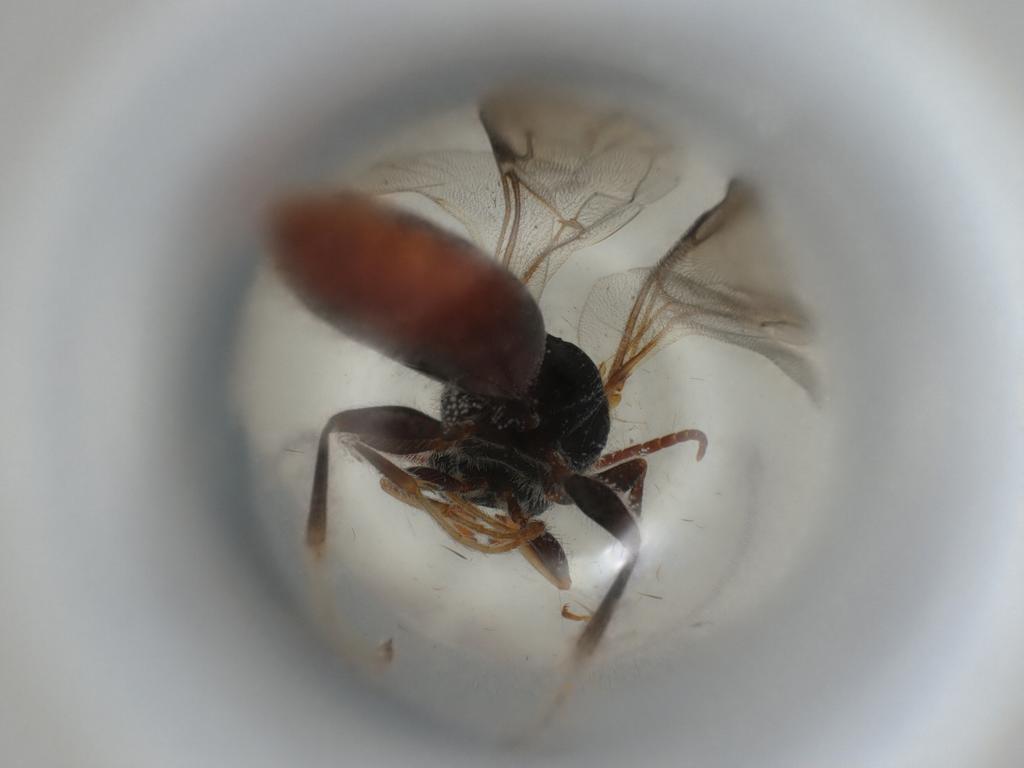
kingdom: Animalia
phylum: Arthropoda
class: Insecta
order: Hymenoptera
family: Bethylidae
